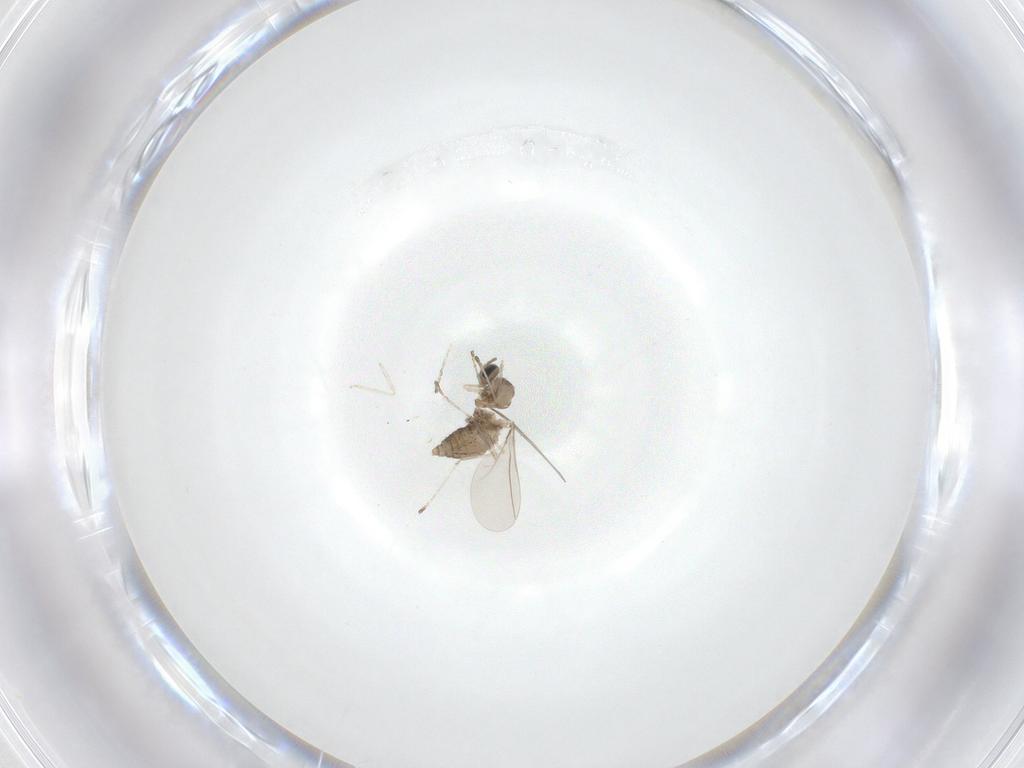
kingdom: Animalia
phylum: Arthropoda
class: Insecta
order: Diptera
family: Cecidomyiidae
